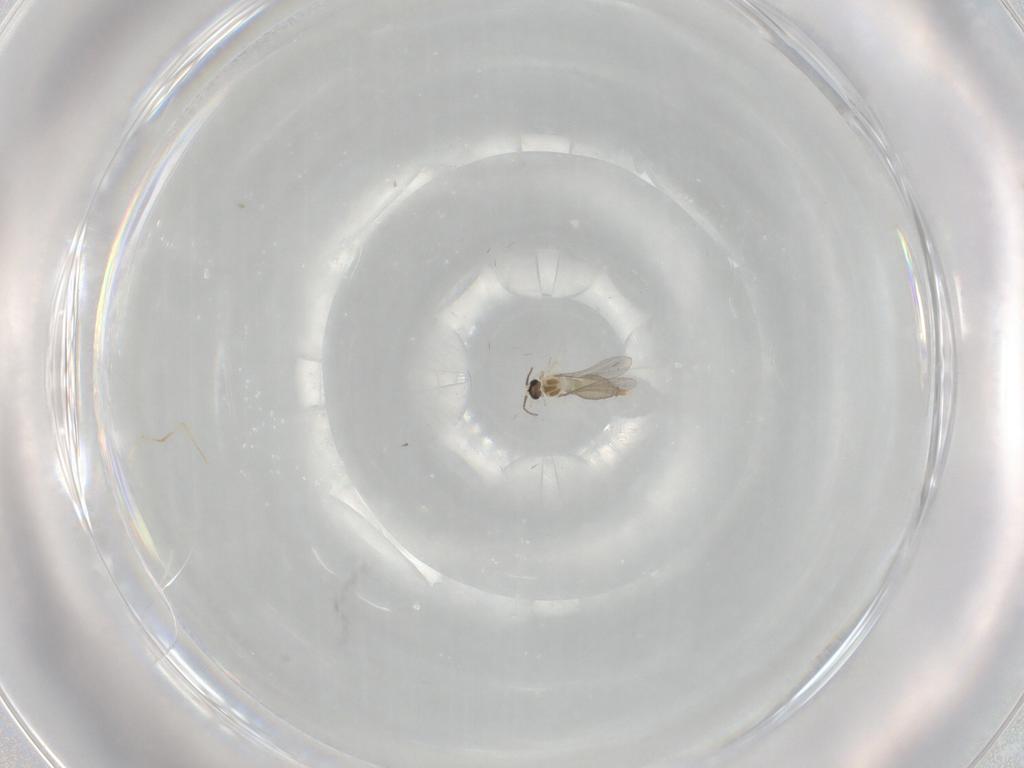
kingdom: Animalia
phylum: Arthropoda
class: Insecta
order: Diptera
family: Cecidomyiidae
